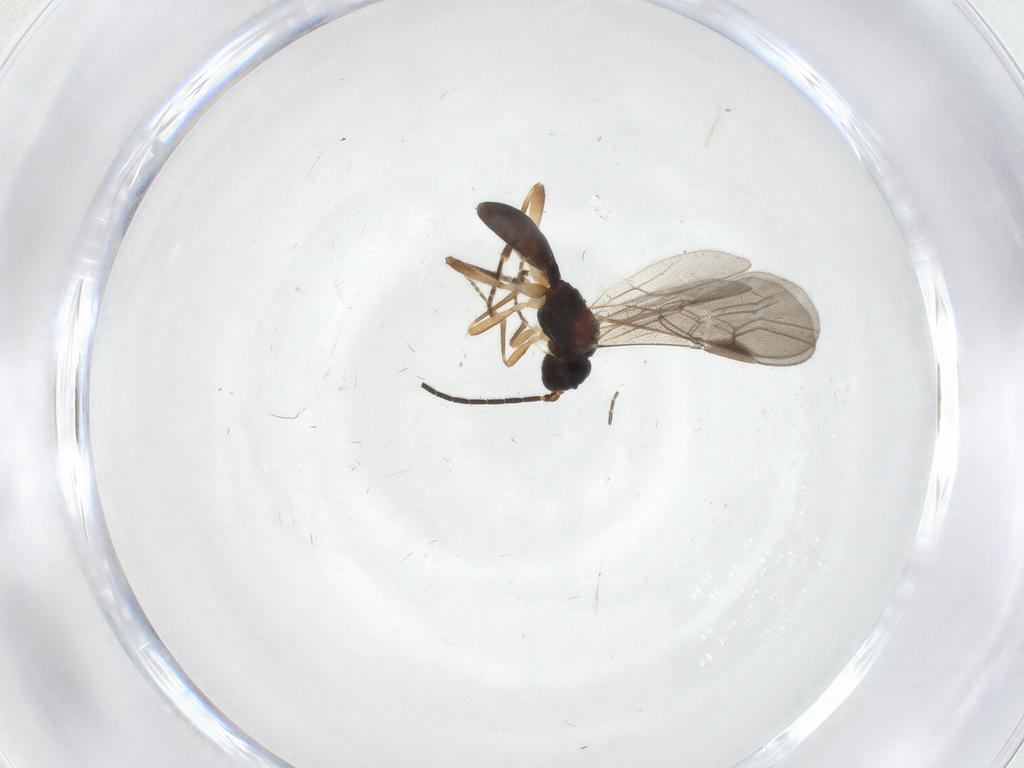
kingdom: Animalia
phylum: Arthropoda
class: Insecta
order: Hymenoptera
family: Braconidae
